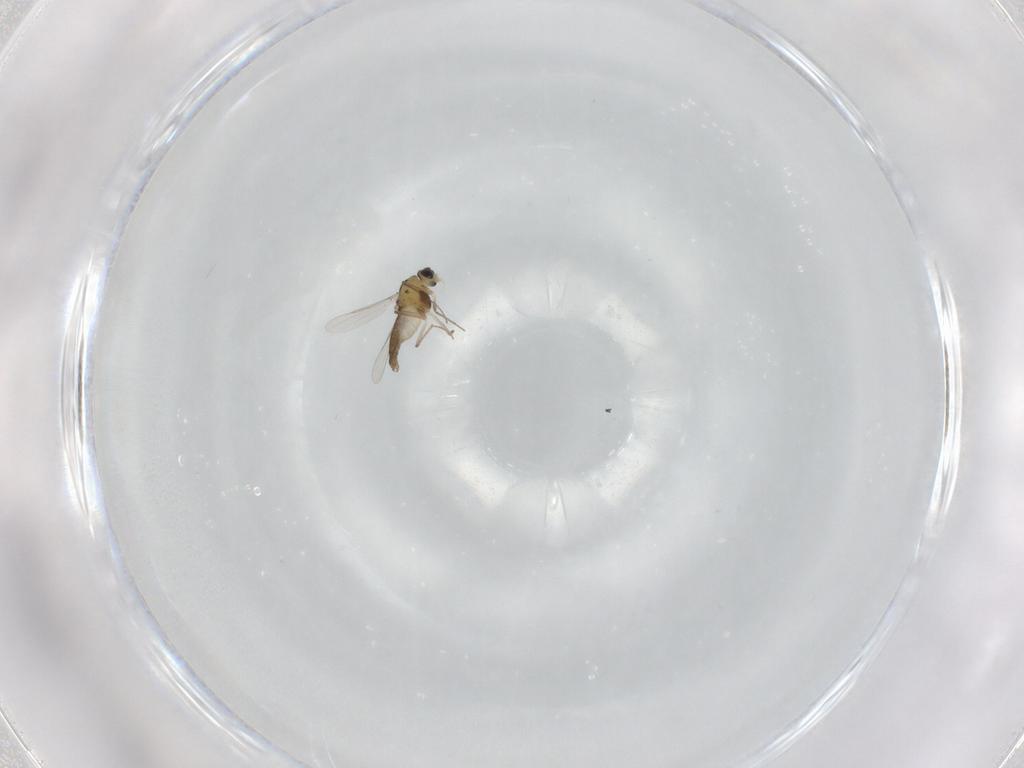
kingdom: Animalia
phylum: Arthropoda
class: Insecta
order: Diptera
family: Chironomidae
